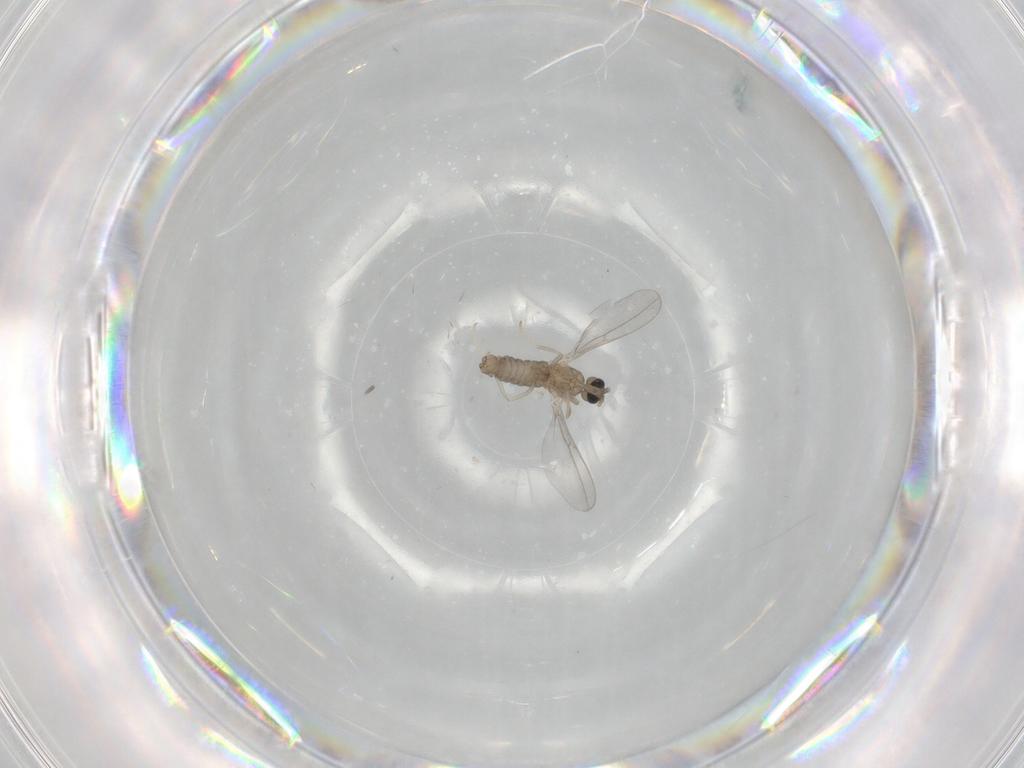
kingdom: Animalia
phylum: Arthropoda
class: Insecta
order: Diptera
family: Cecidomyiidae
